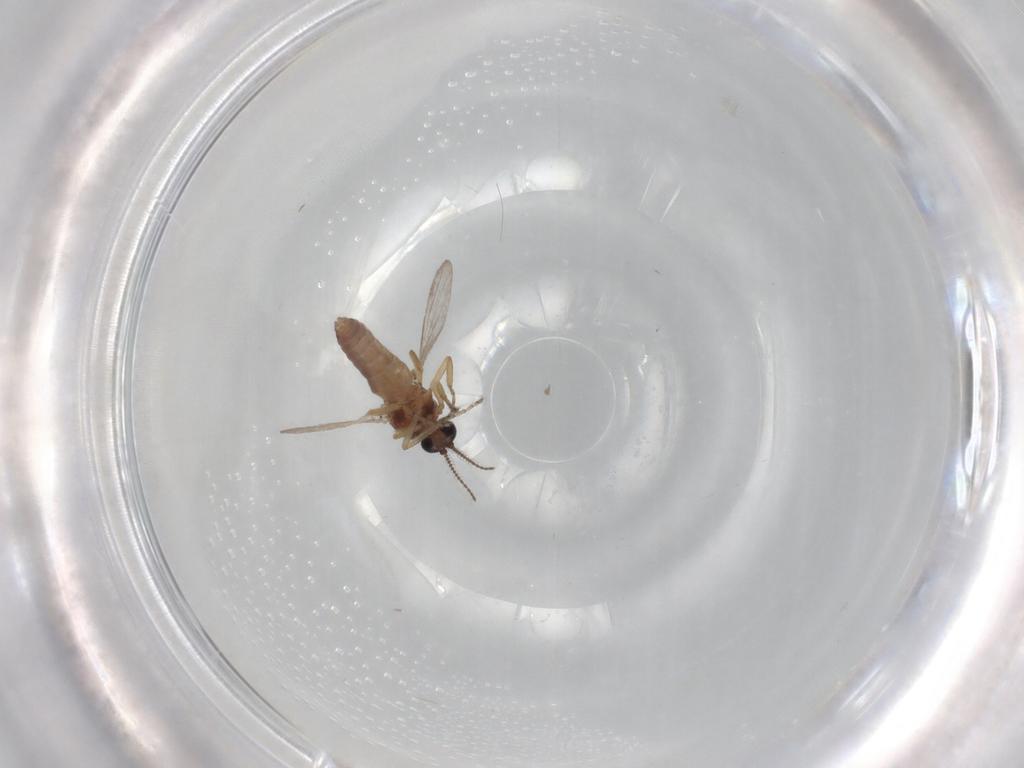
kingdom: Animalia
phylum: Arthropoda
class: Insecta
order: Diptera
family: Ceratopogonidae
